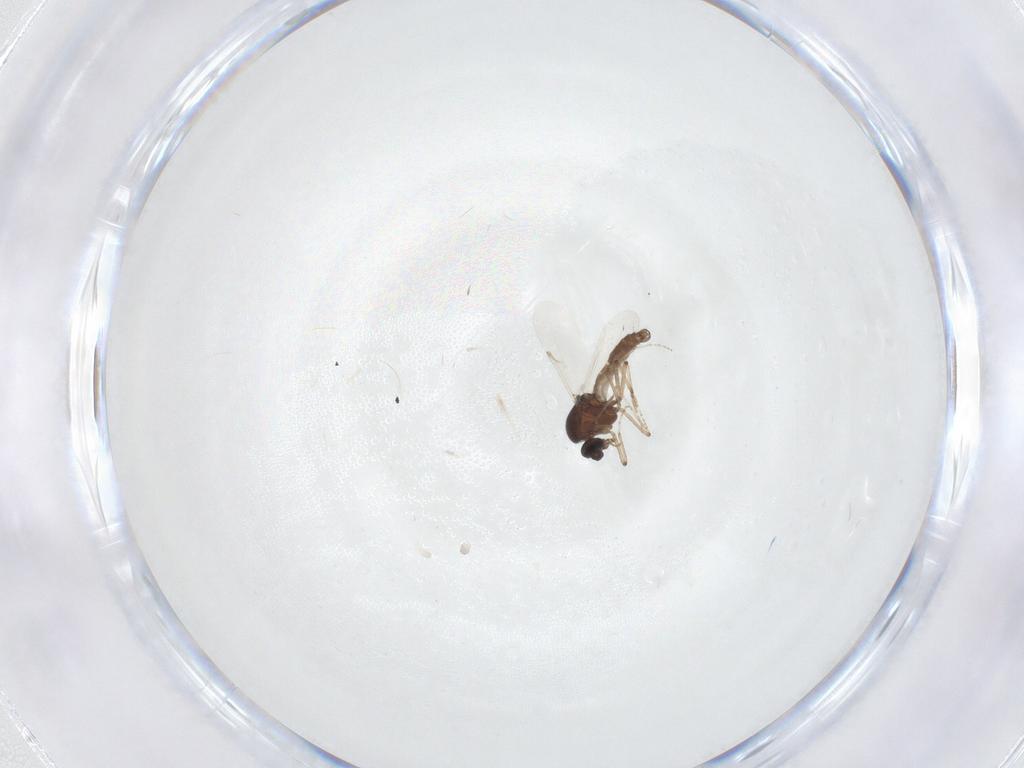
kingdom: Animalia
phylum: Arthropoda
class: Insecta
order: Diptera
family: Ceratopogonidae
